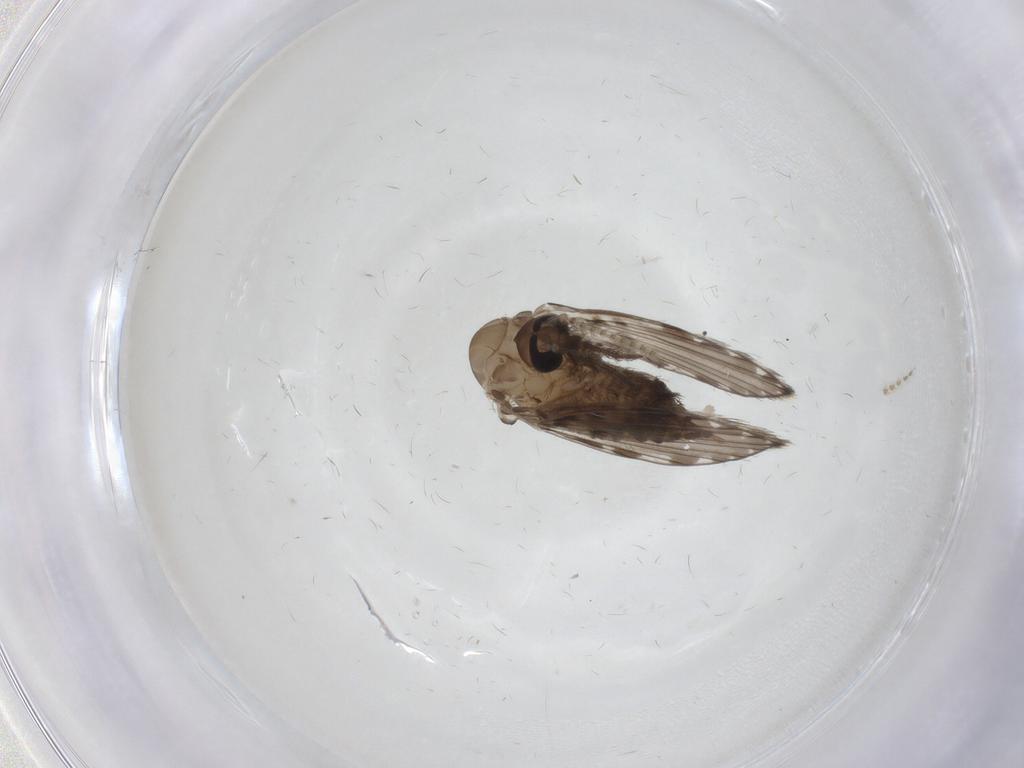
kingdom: Animalia
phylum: Arthropoda
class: Insecta
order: Diptera
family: Psychodidae
